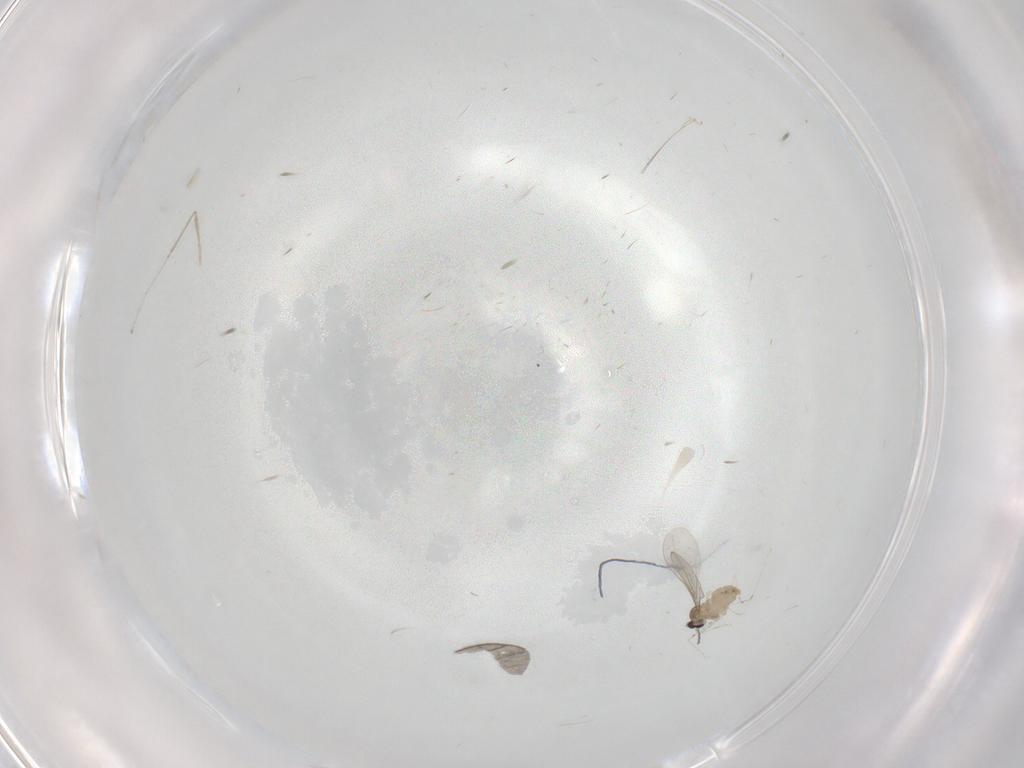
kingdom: Animalia
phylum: Arthropoda
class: Insecta
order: Diptera
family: Cecidomyiidae
